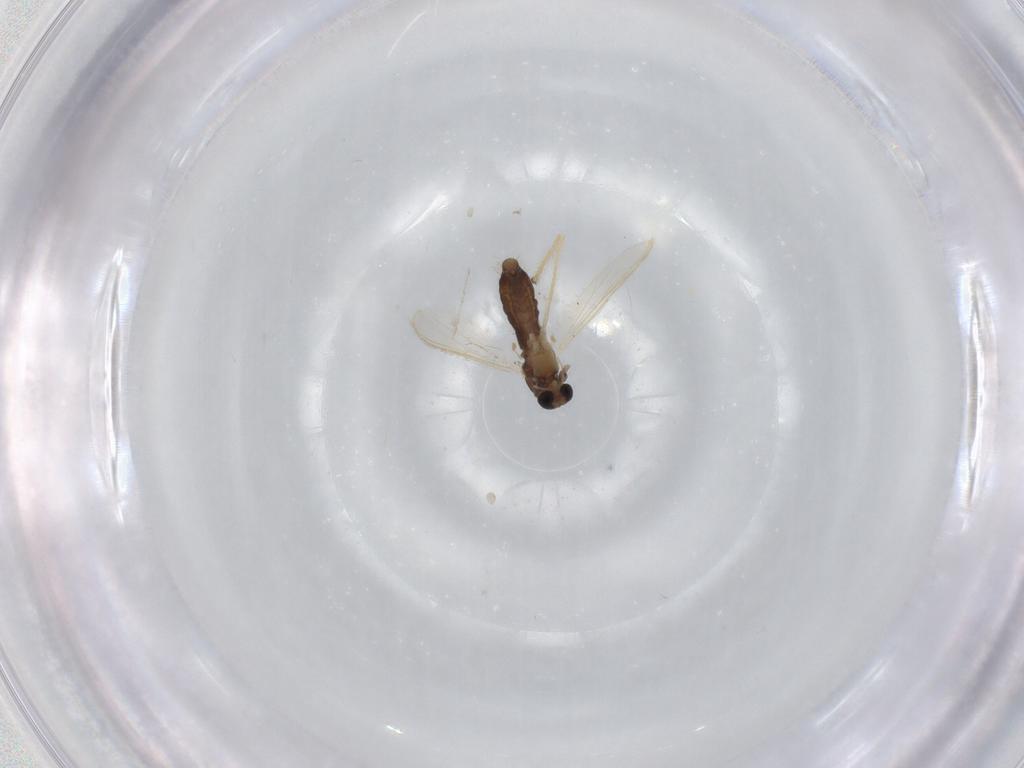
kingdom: Animalia
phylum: Arthropoda
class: Insecta
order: Diptera
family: Chironomidae
